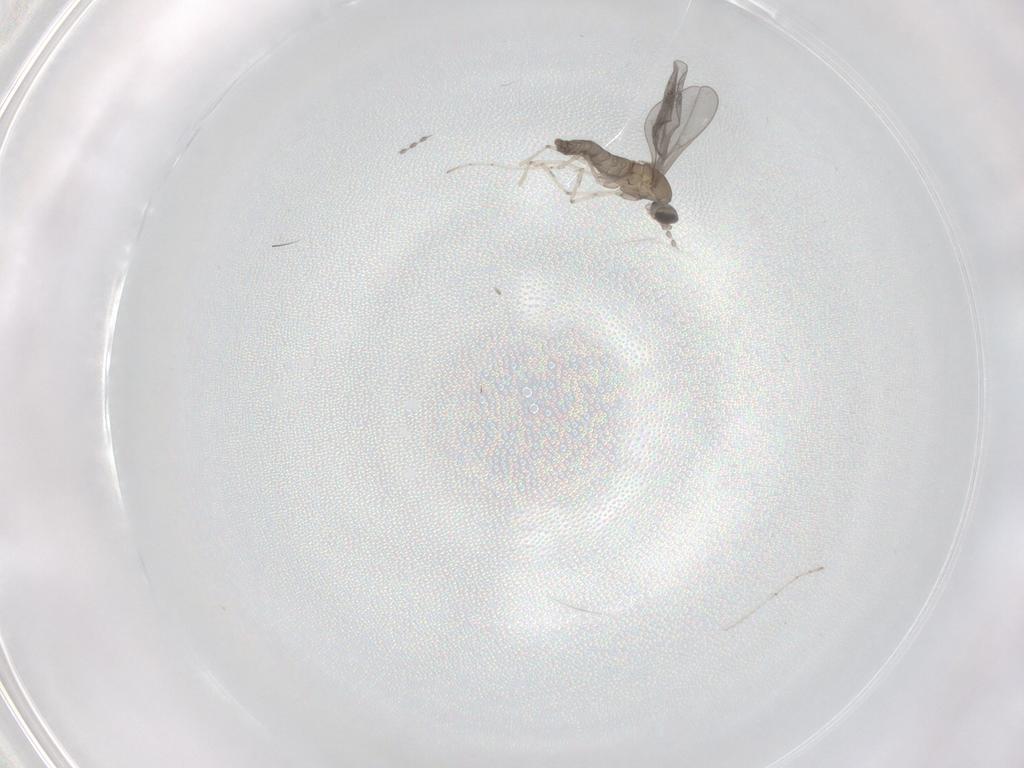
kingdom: Animalia
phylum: Arthropoda
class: Insecta
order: Diptera
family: Cecidomyiidae
